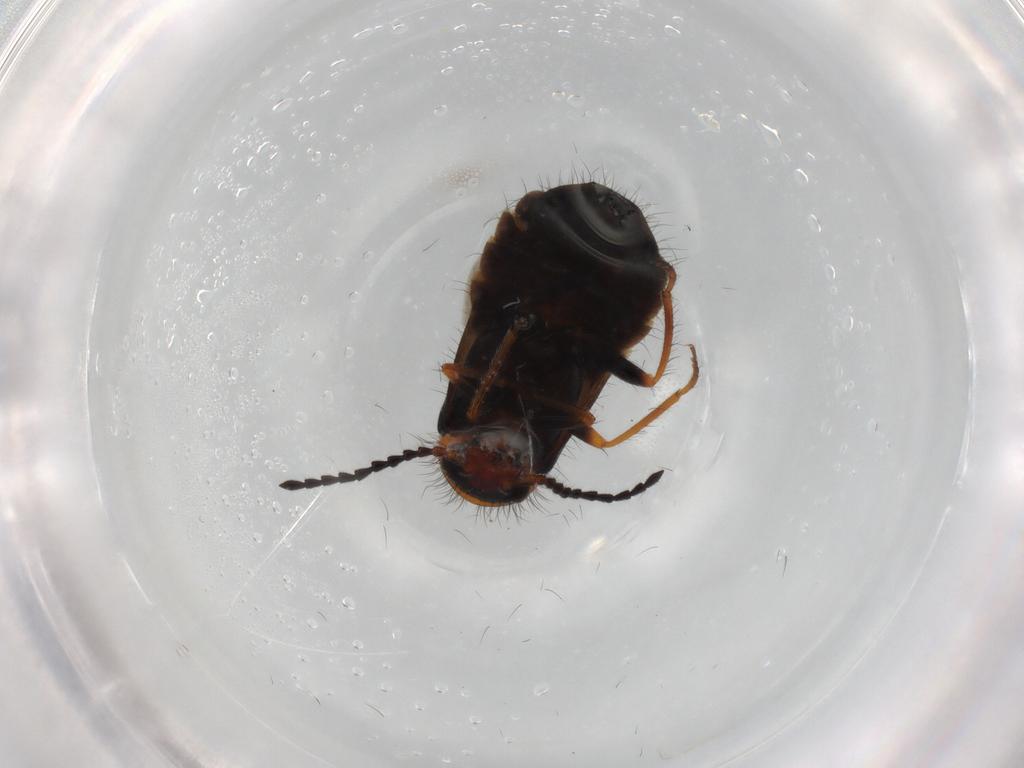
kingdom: Animalia
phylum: Arthropoda
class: Insecta
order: Coleoptera
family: Melyridae
